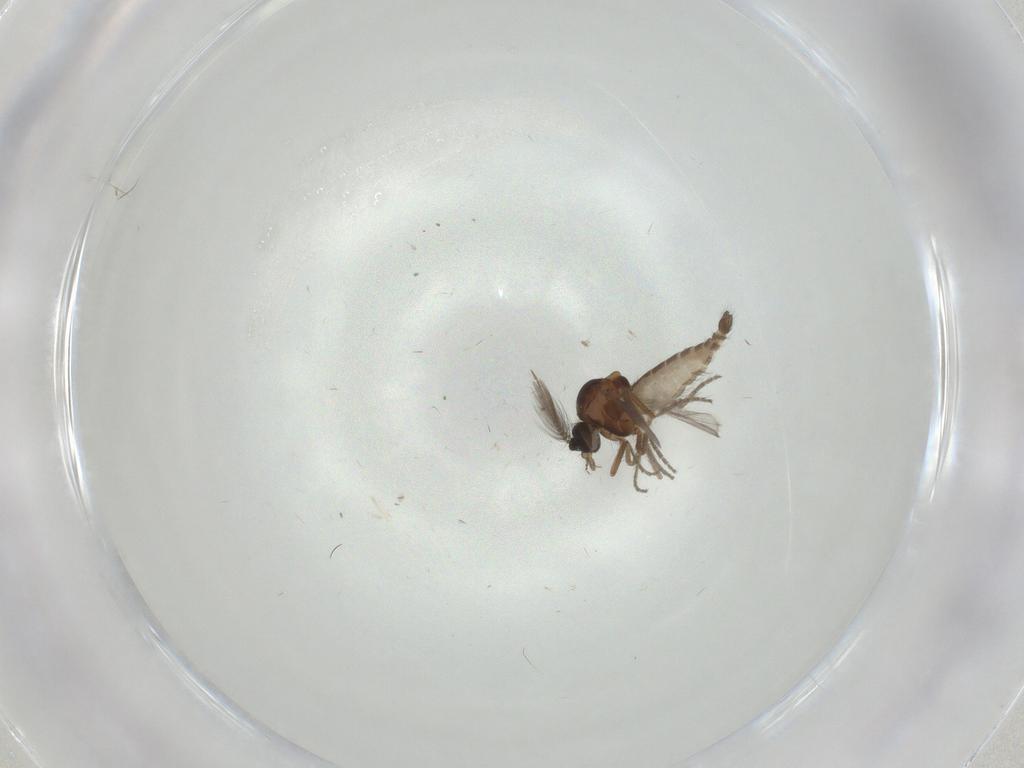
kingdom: Animalia
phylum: Arthropoda
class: Insecta
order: Diptera
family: Ceratopogonidae
